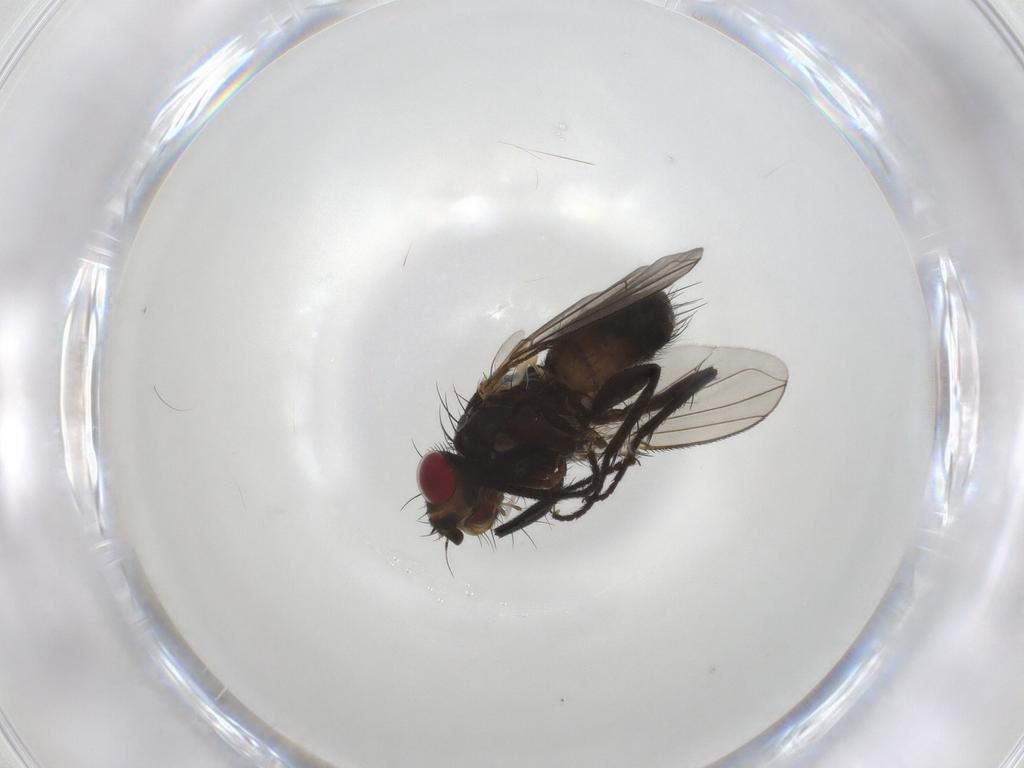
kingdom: Animalia
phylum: Arthropoda
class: Insecta
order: Diptera
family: Calliphoridae
